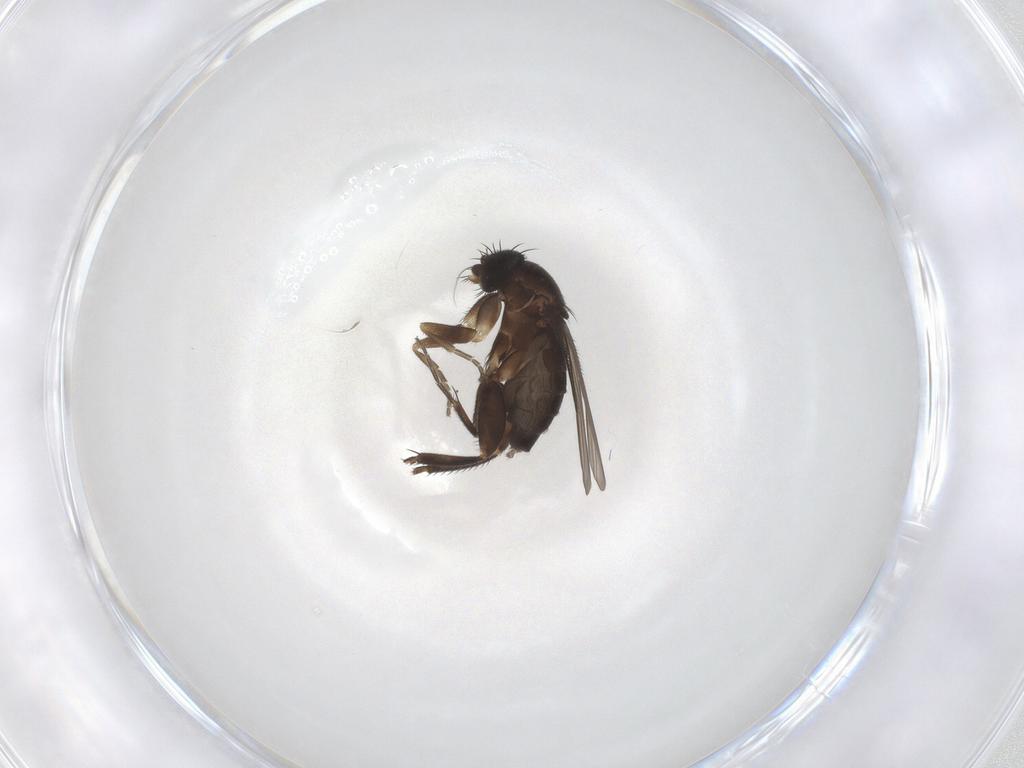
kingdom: Animalia
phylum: Arthropoda
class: Insecta
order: Diptera
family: Phoridae
